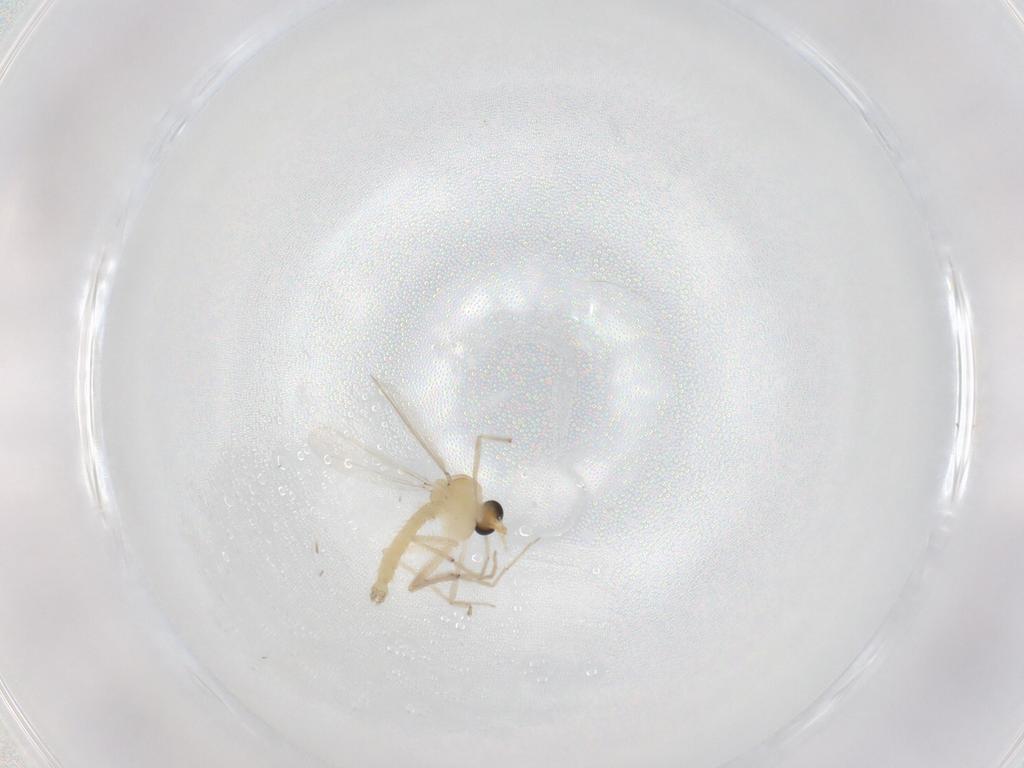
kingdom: Animalia
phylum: Arthropoda
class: Insecta
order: Diptera
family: Chironomidae
